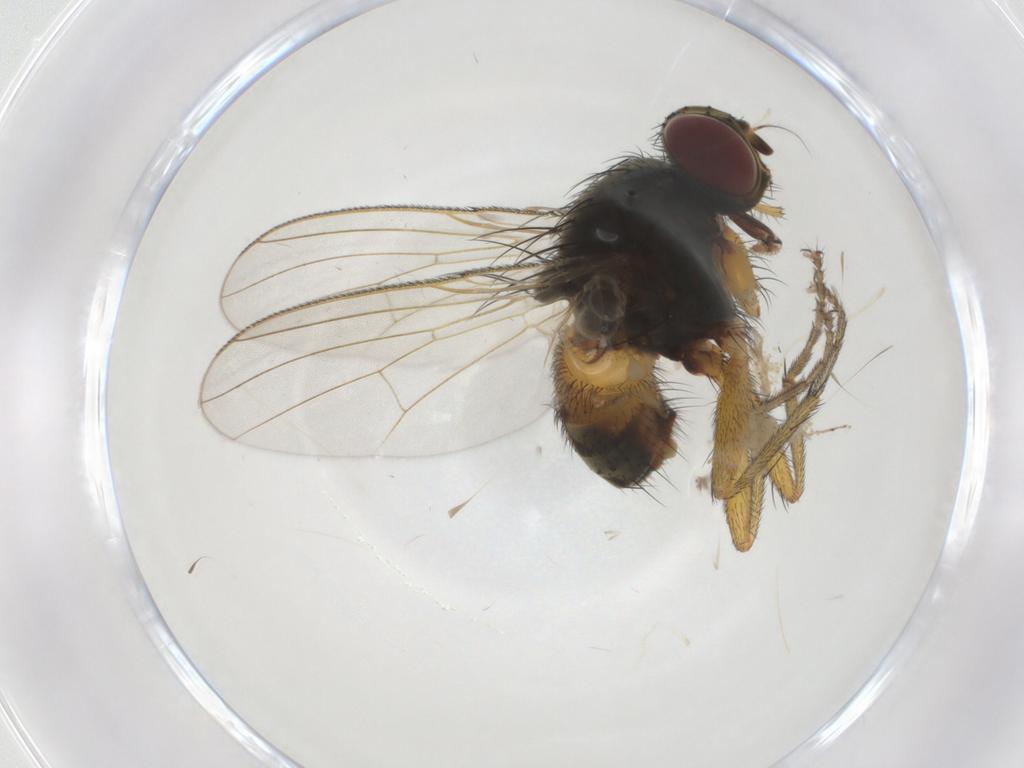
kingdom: Animalia
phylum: Arthropoda
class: Insecta
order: Diptera
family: Muscidae
